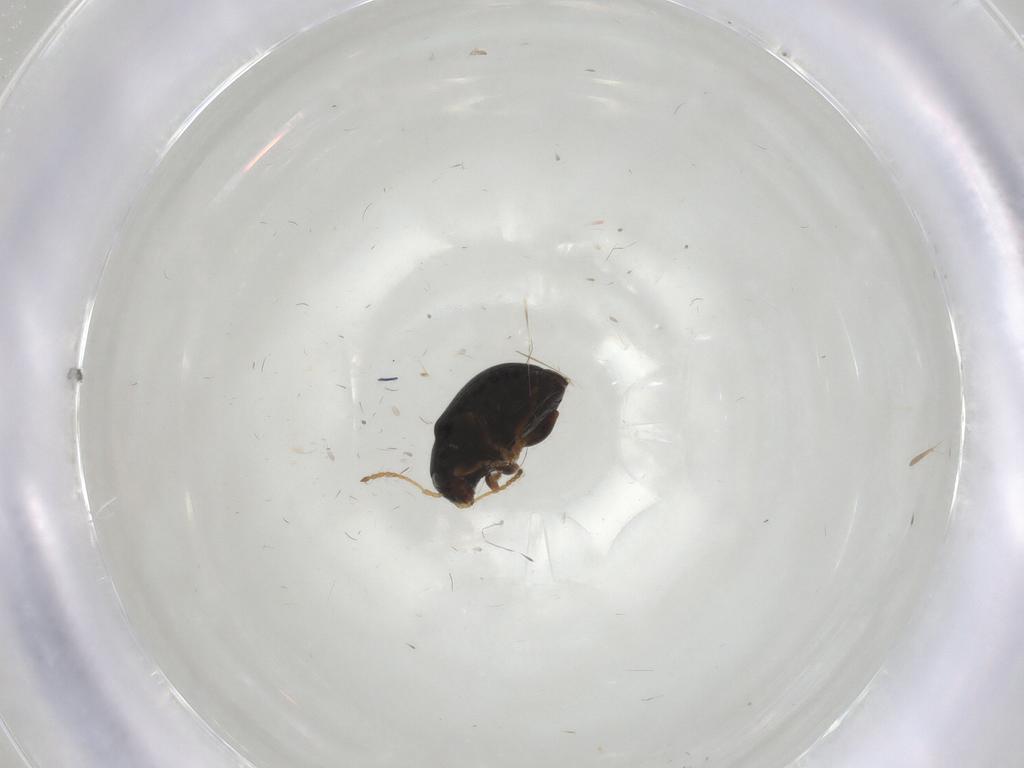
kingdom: Animalia
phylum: Arthropoda
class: Insecta
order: Coleoptera
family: Chrysomelidae
